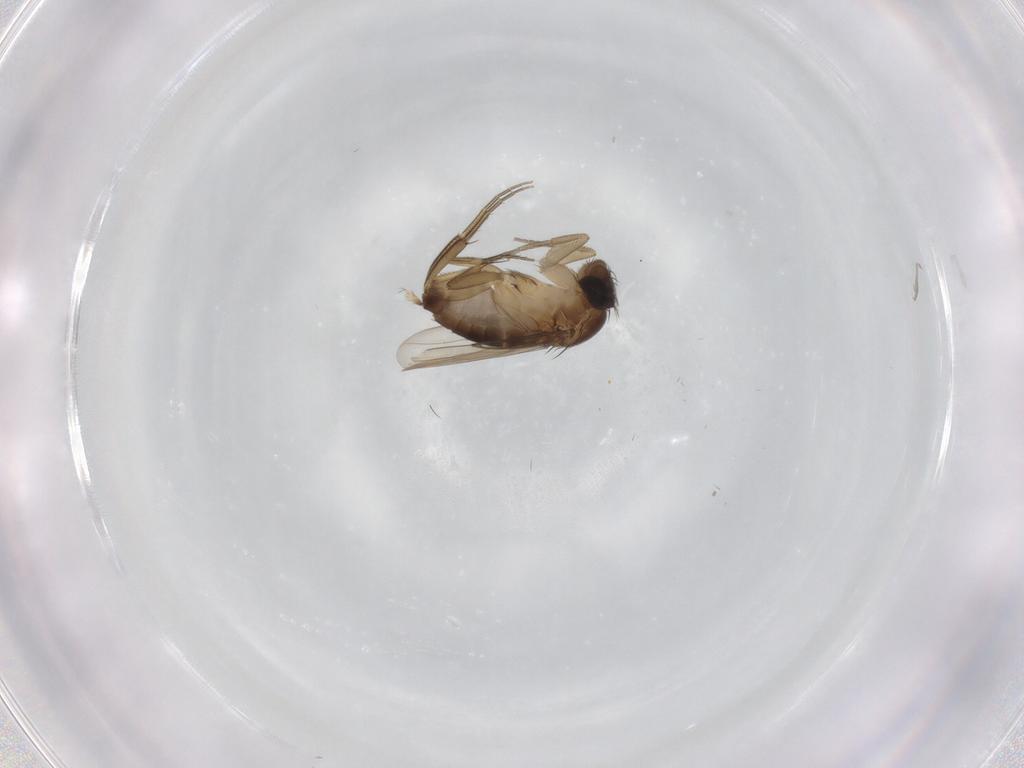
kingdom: Animalia
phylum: Arthropoda
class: Insecta
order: Diptera
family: Phoridae
